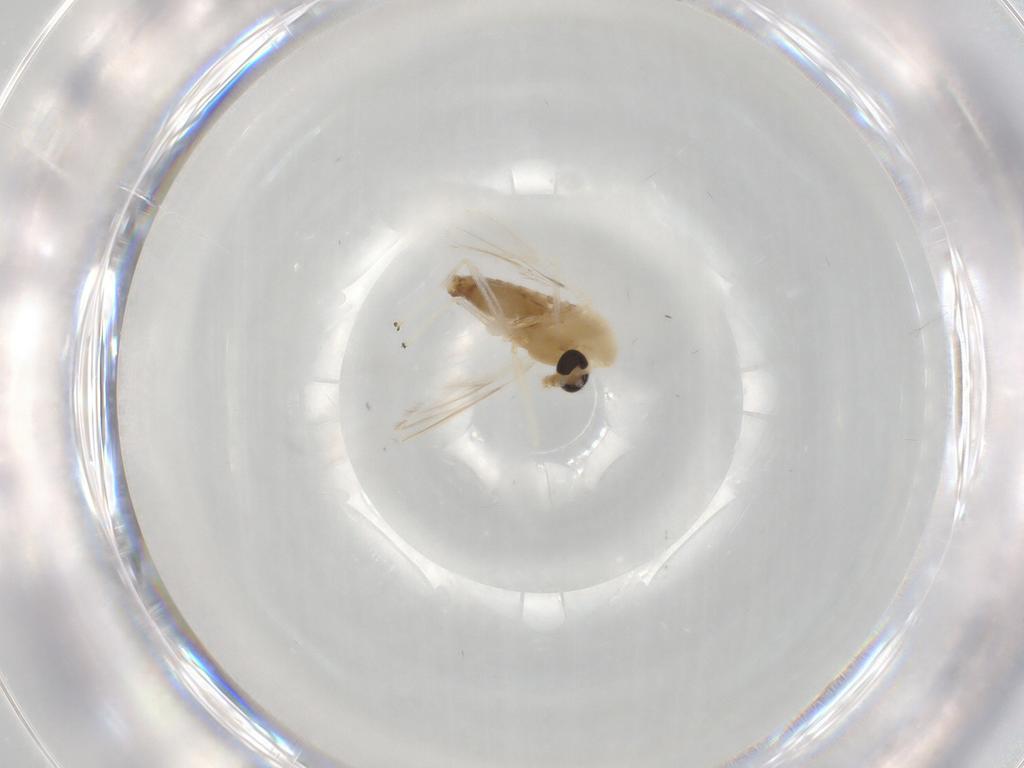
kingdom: Animalia
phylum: Arthropoda
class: Insecta
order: Diptera
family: Chironomidae
